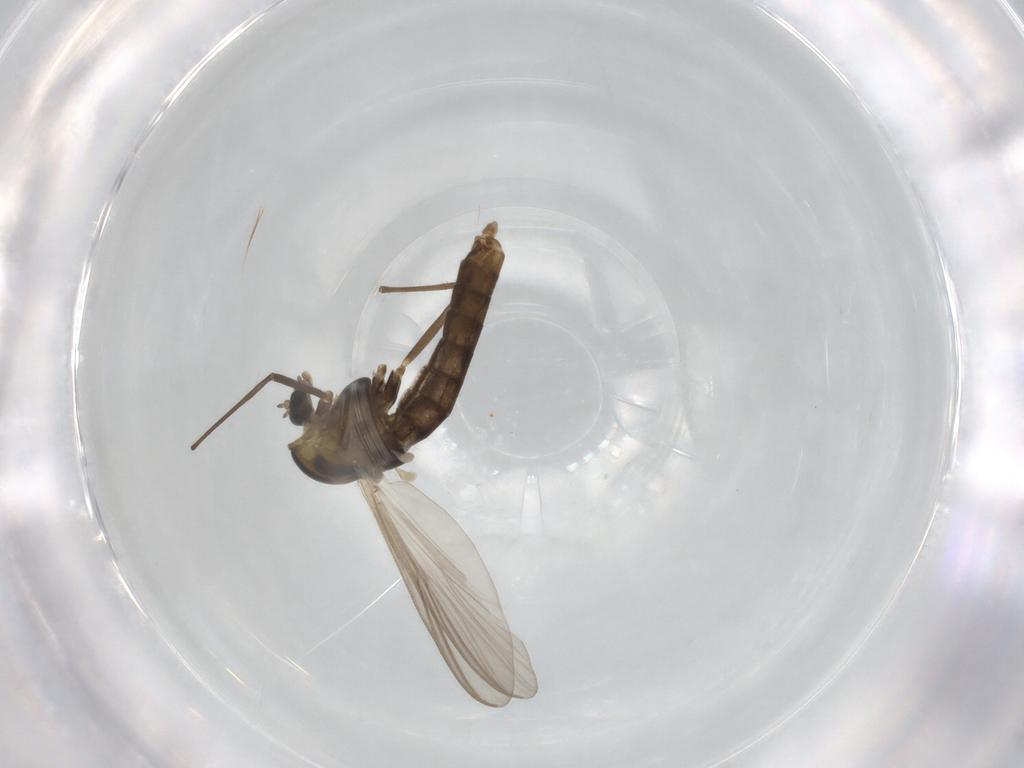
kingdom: Animalia
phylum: Arthropoda
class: Insecta
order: Diptera
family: Chironomidae
